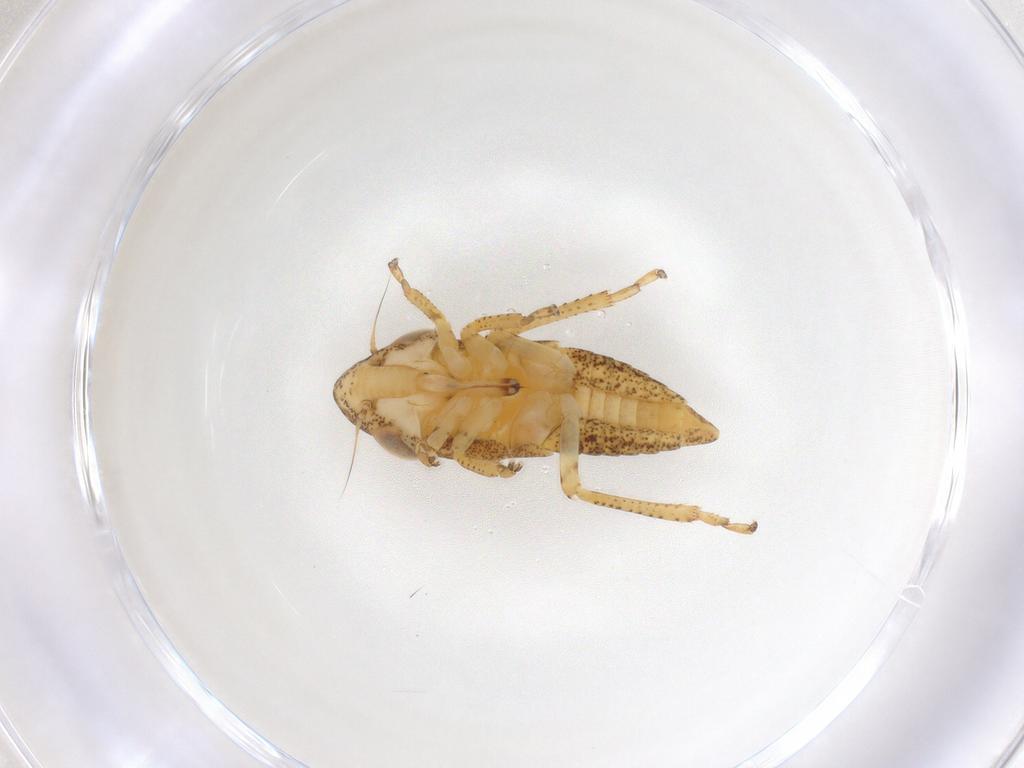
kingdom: Animalia
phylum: Arthropoda
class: Insecta
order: Hemiptera
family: Cicadellidae
